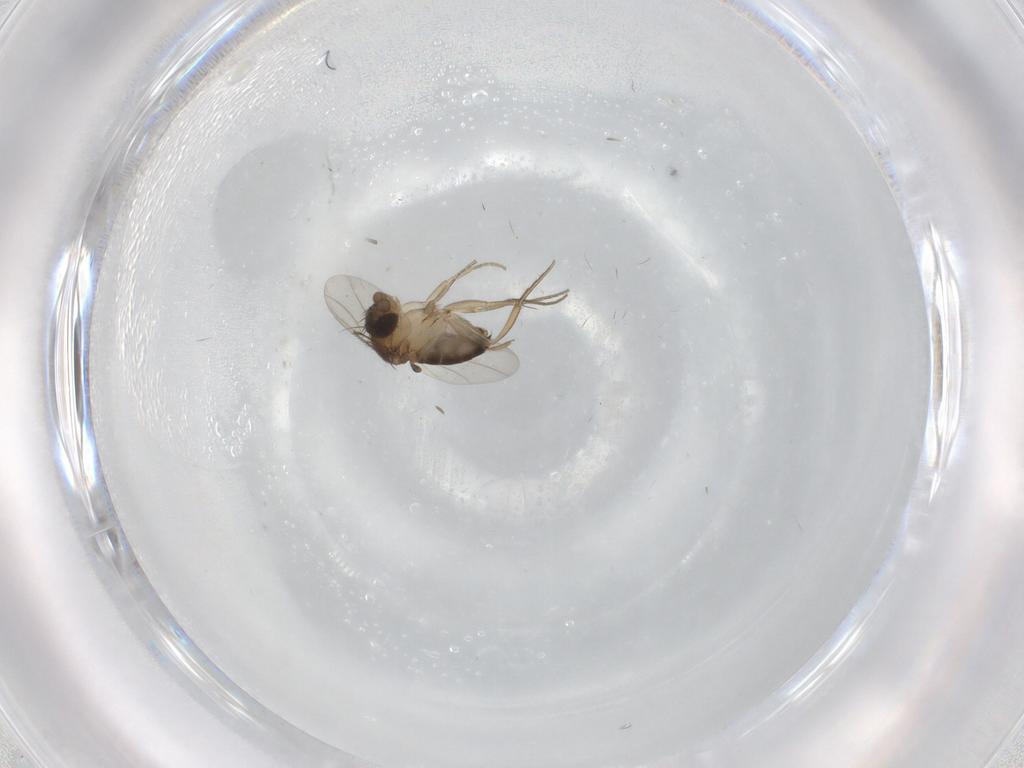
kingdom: Animalia
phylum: Arthropoda
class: Insecta
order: Diptera
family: Phoridae
